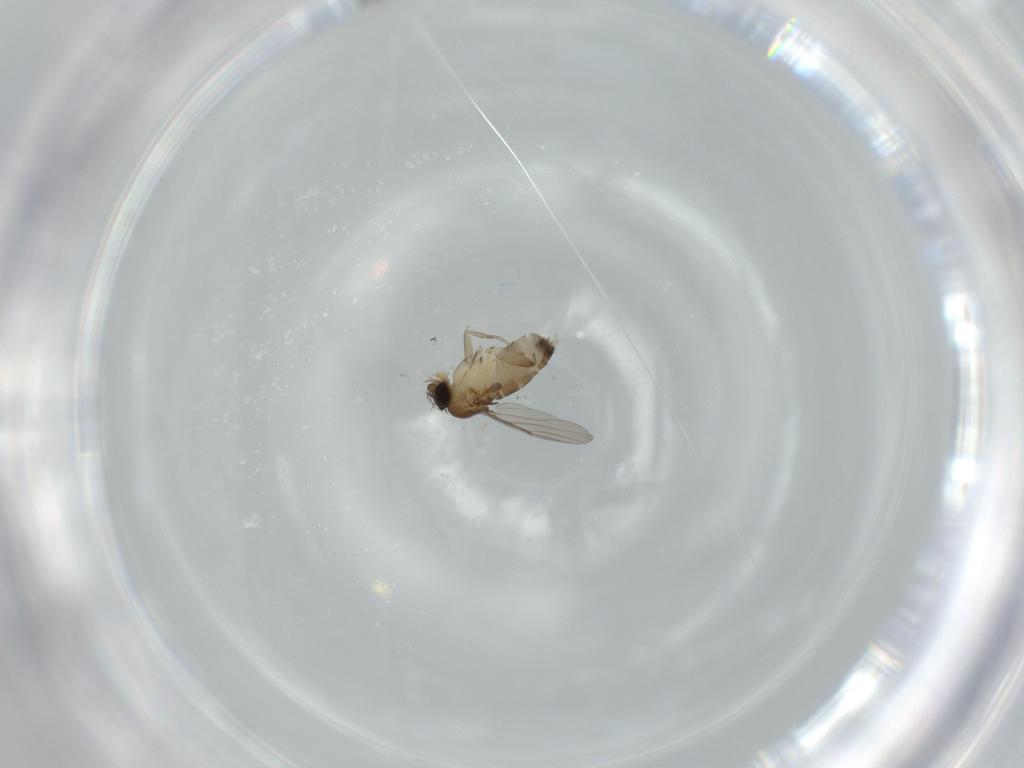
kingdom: Animalia
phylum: Arthropoda
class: Insecta
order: Diptera
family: Phoridae
